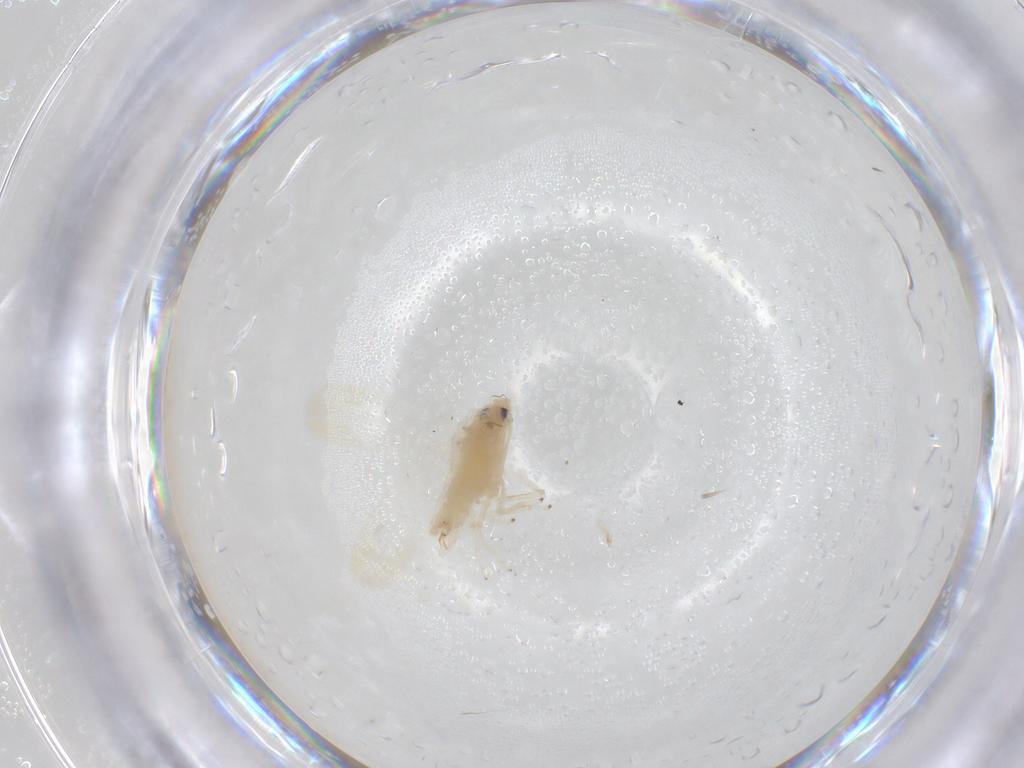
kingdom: Animalia
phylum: Arthropoda
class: Insecta
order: Hemiptera
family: Cicadellidae
